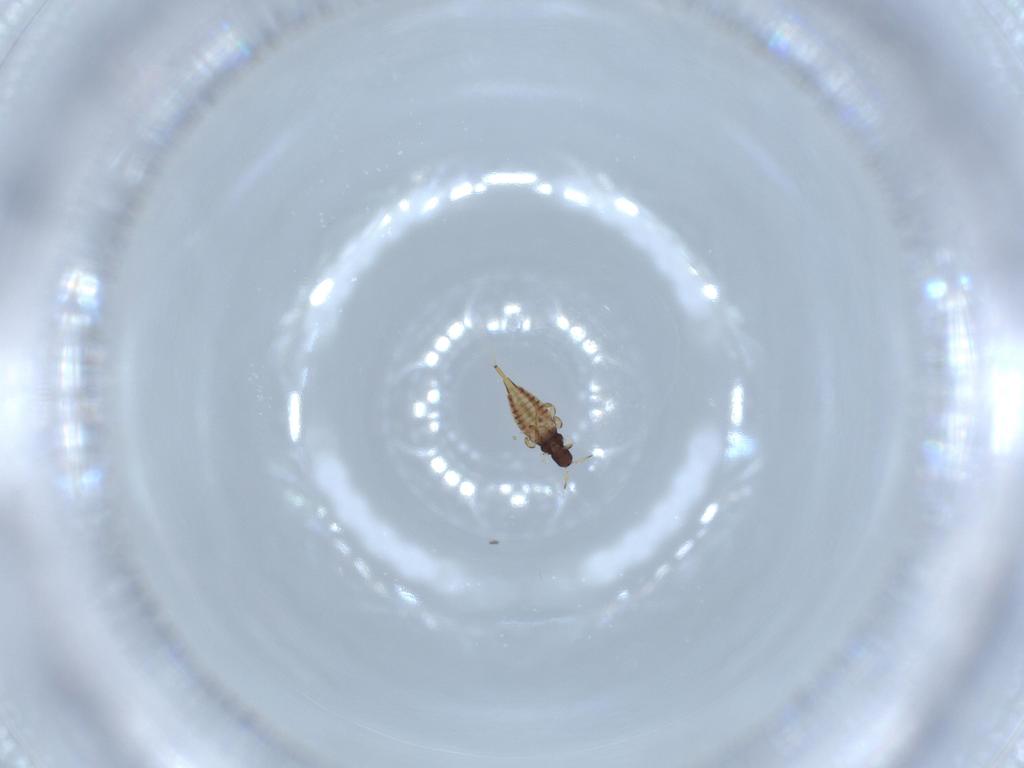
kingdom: Animalia
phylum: Arthropoda
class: Insecta
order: Thysanoptera
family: Phlaeothripidae
